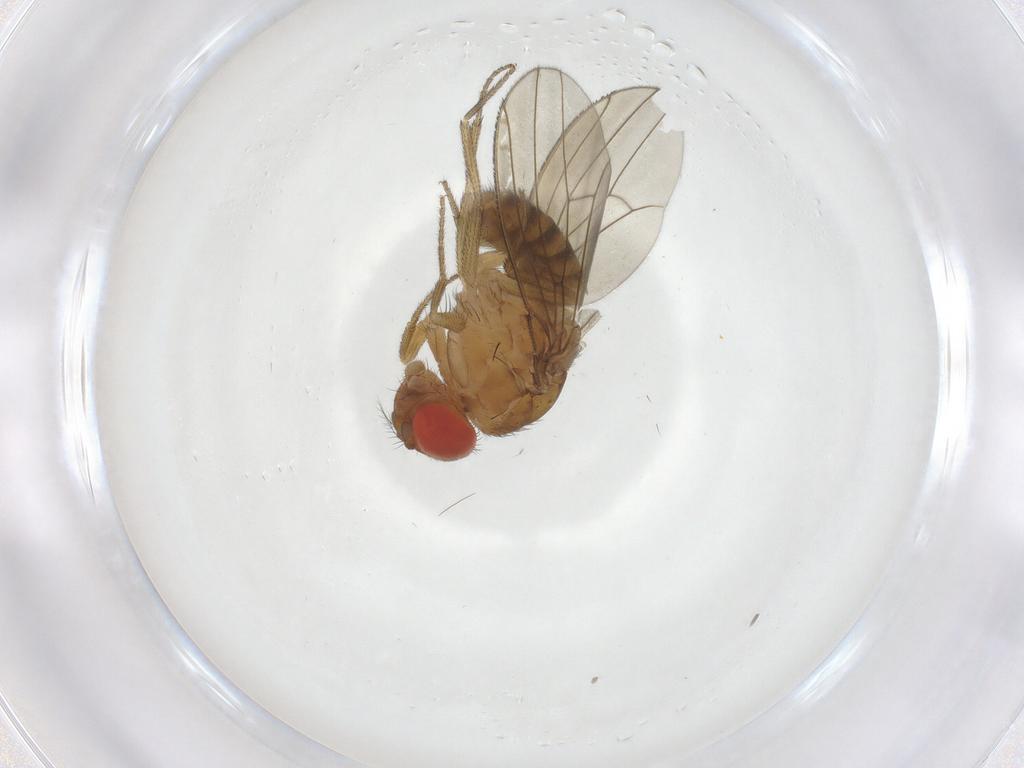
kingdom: Animalia
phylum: Arthropoda
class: Insecta
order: Diptera
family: Drosophilidae
